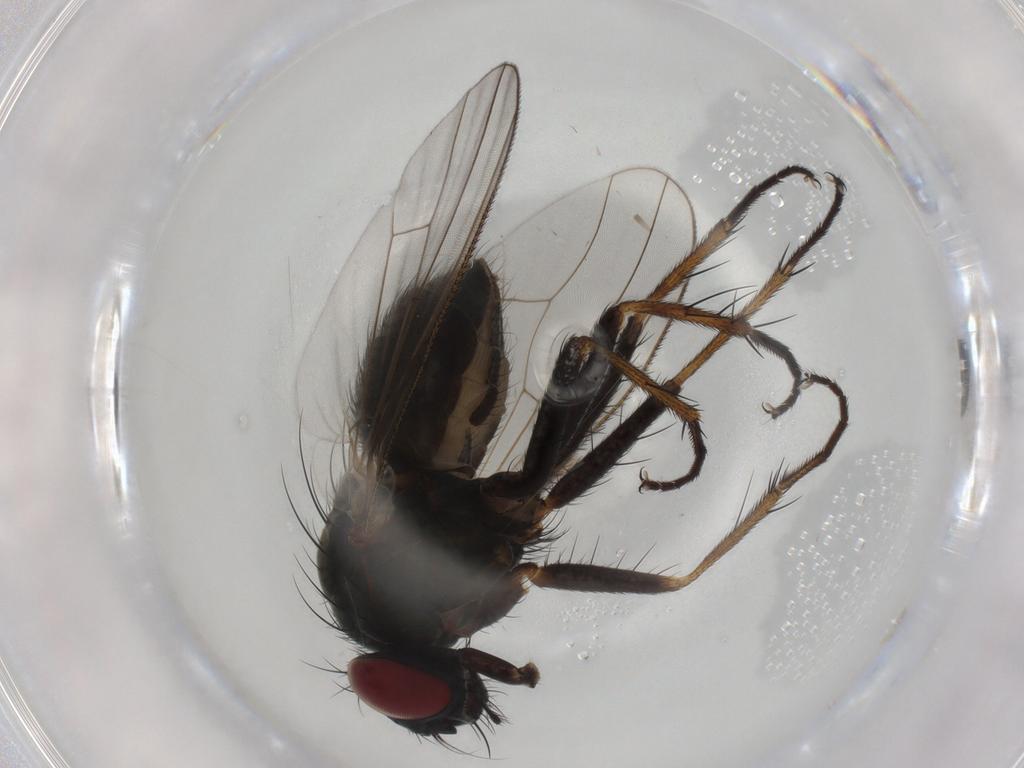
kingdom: Animalia
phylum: Arthropoda
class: Insecta
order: Diptera
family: Muscidae
